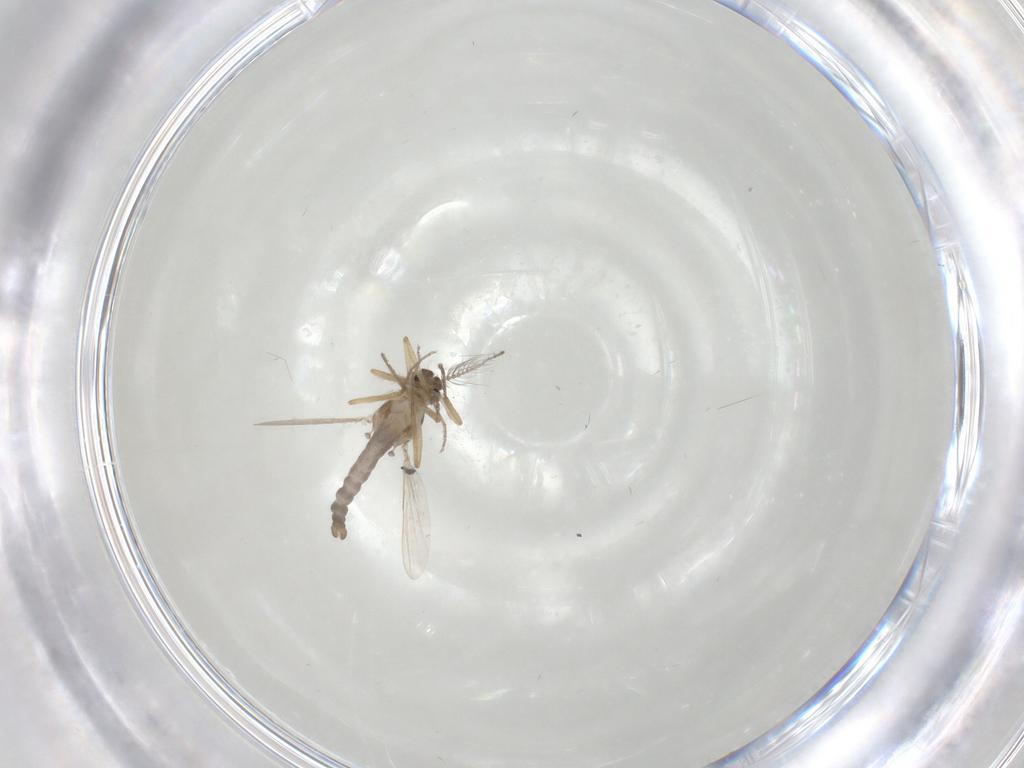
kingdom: Animalia
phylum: Arthropoda
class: Insecta
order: Diptera
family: Ceratopogonidae
